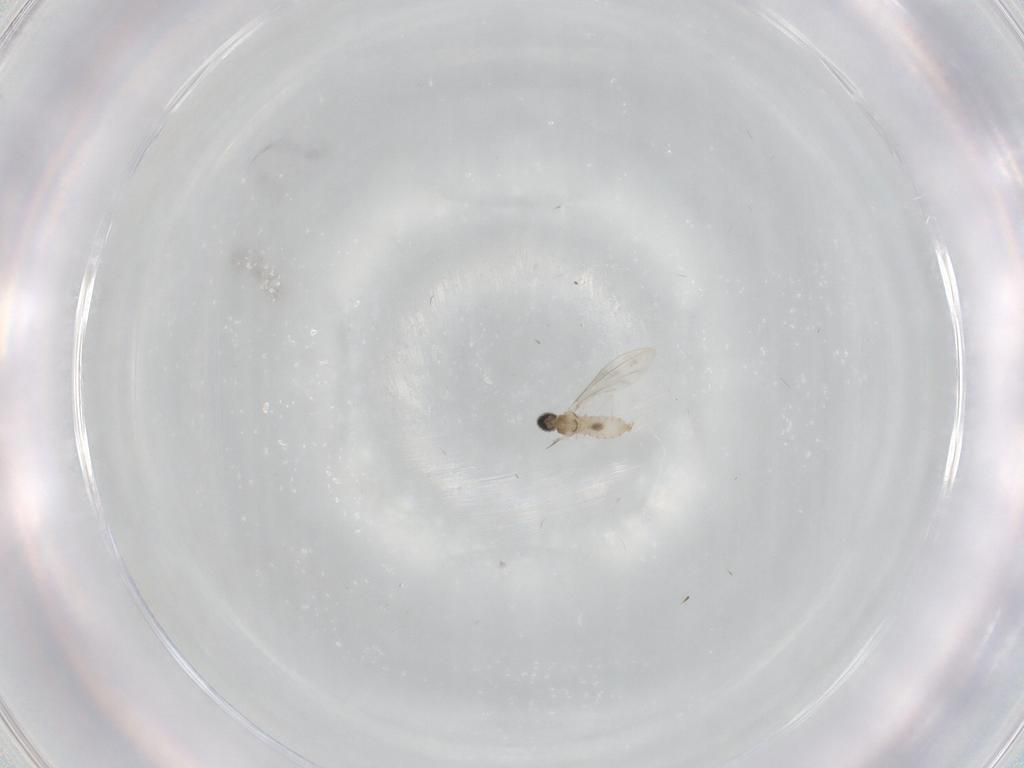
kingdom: Animalia
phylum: Arthropoda
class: Insecta
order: Diptera
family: Cecidomyiidae
